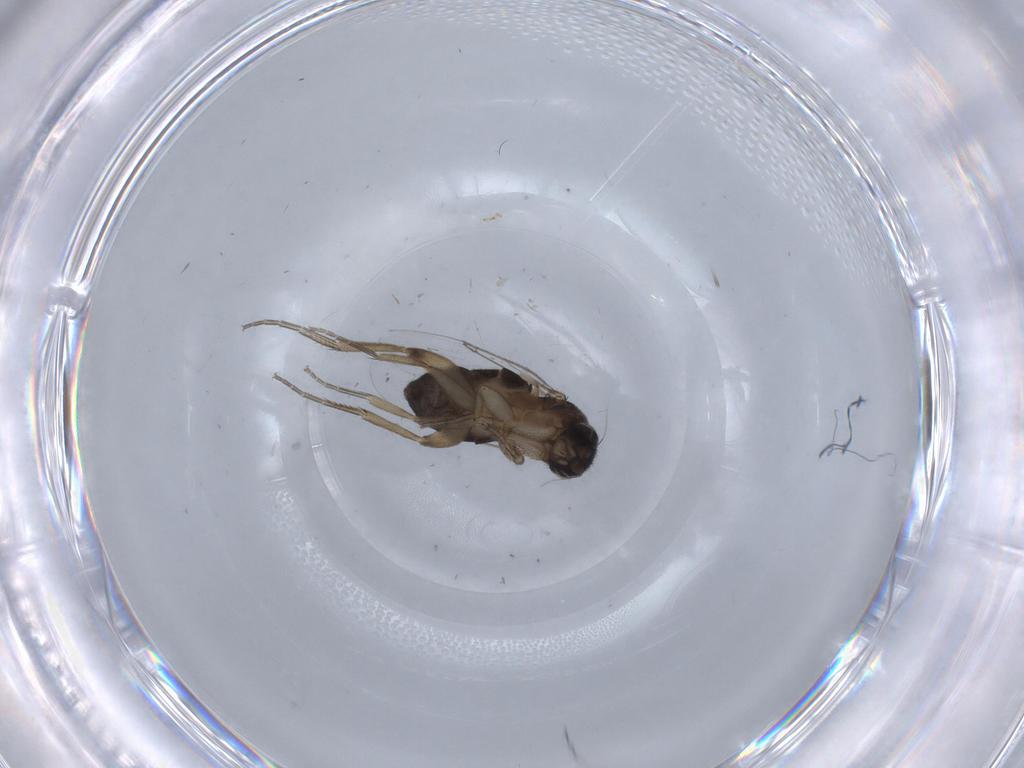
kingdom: Animalia
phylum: Arthropoda
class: Insecta
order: Diptera
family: Phoridae
